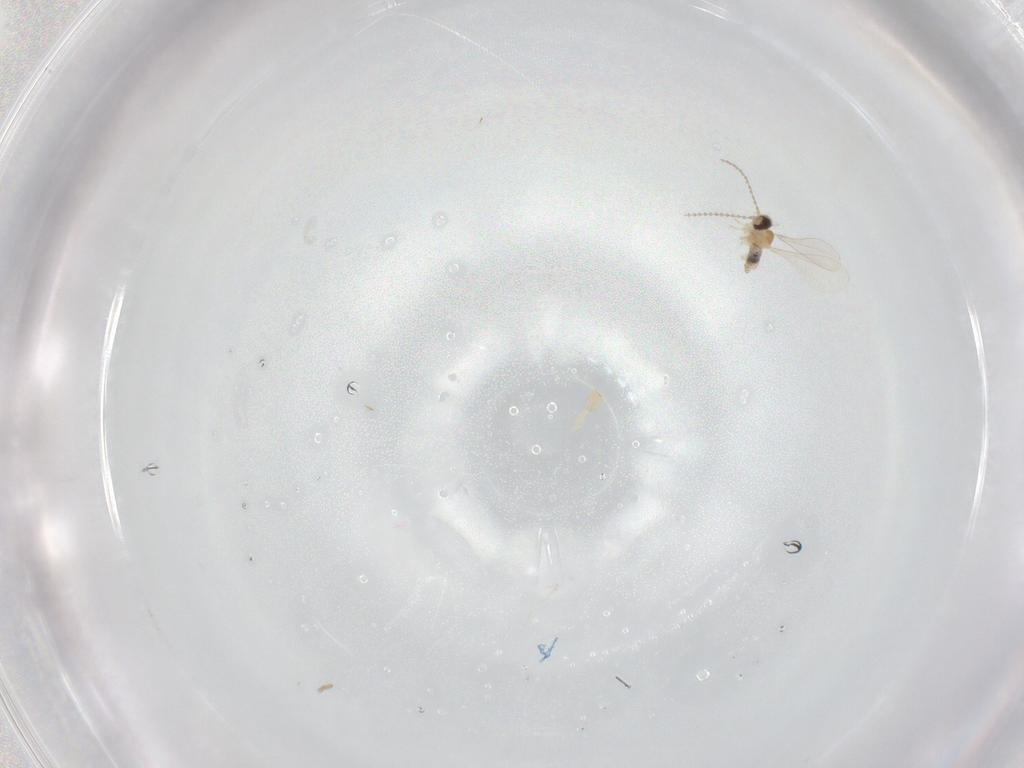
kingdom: Animalia
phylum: Arthropoda
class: Insecta
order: Diptera
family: Cecidomyiidae
